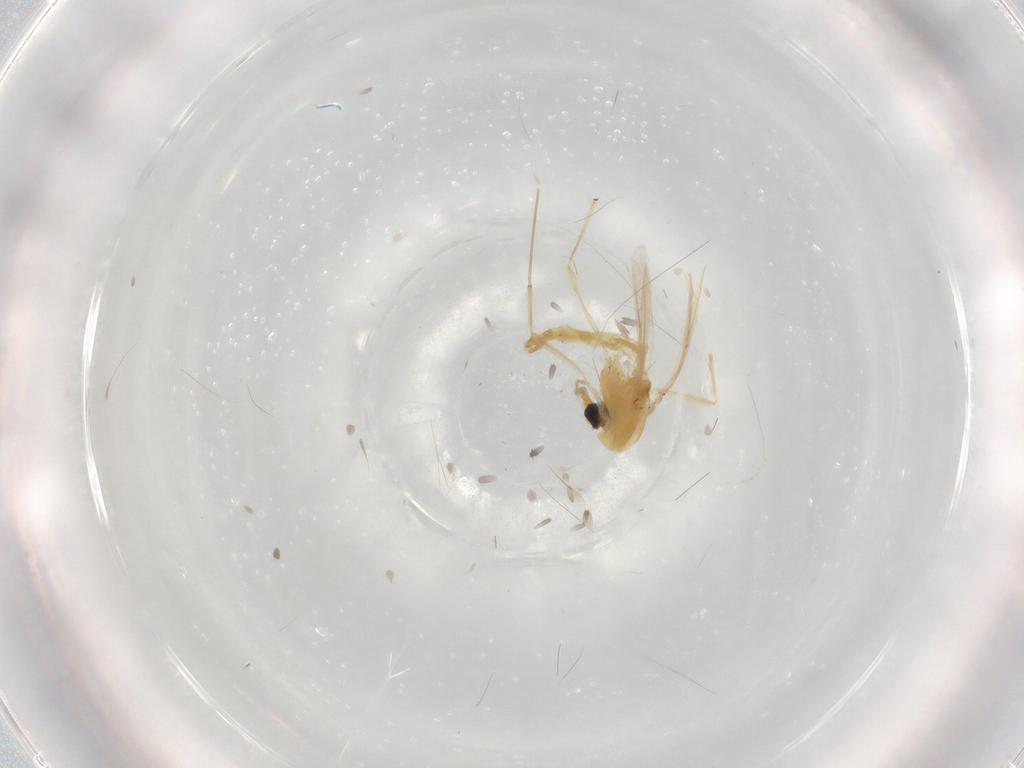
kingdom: Animalia
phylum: Arthropoda
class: Insecta
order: Diptera
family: Chironomidae
